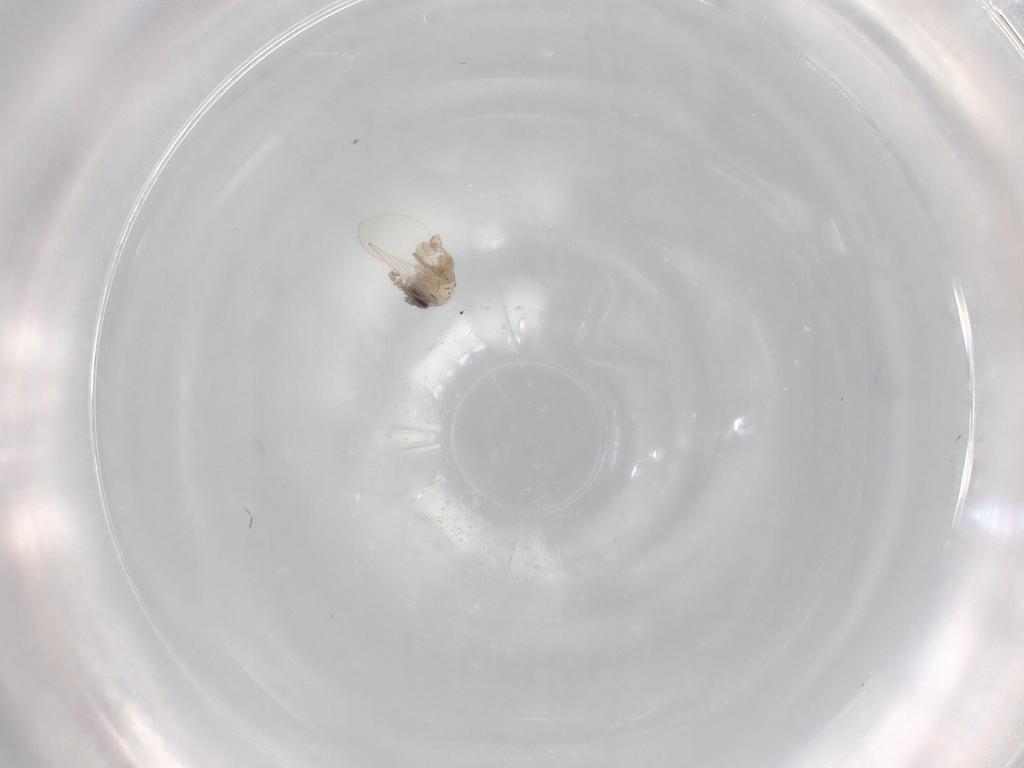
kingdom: Animalia
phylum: Arthropoda
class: Insecta
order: Diptera
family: Psychodidae
